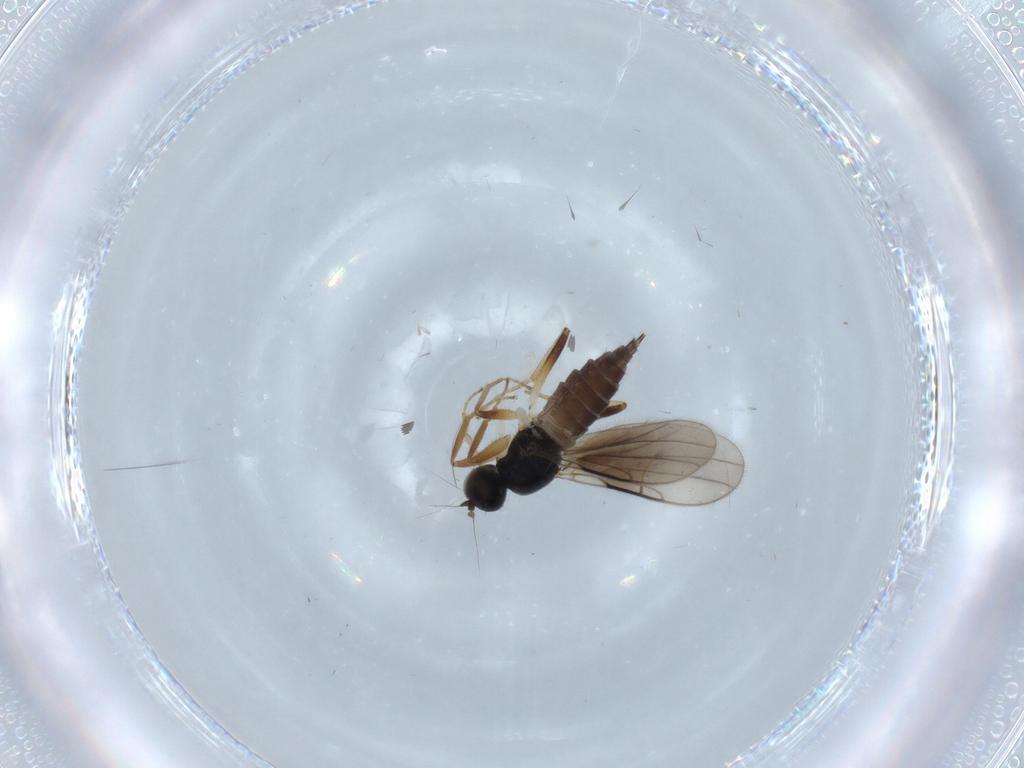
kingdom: Animalia
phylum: Arthropoda
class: Insecta
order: Diptera
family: Hybotidae
